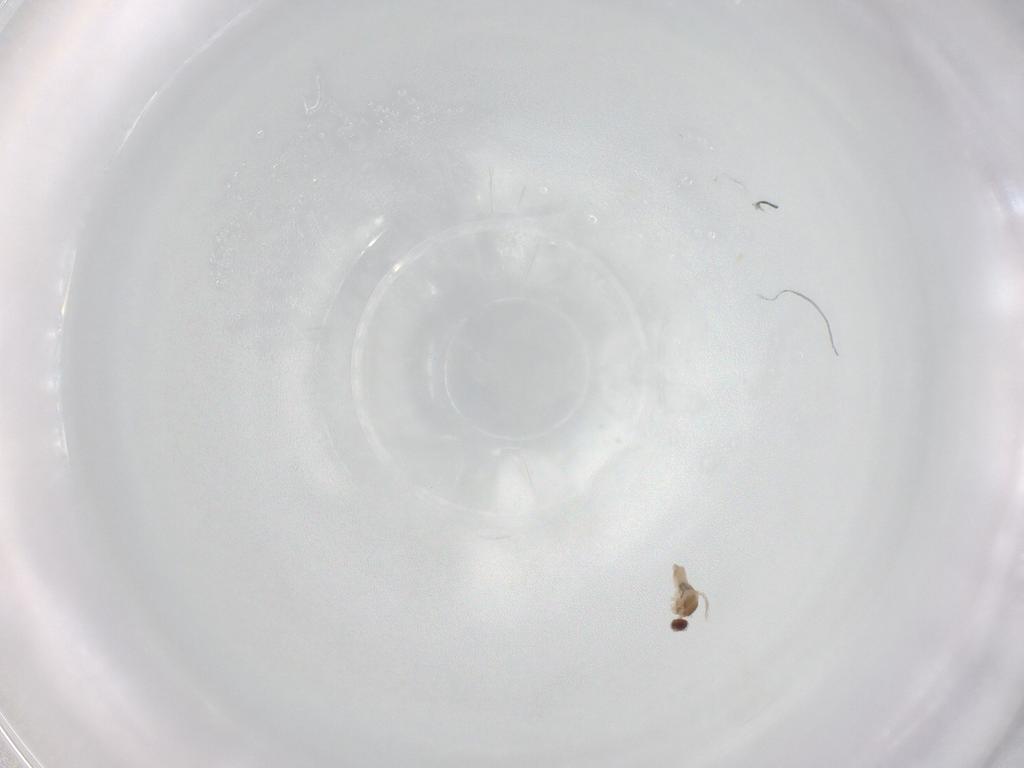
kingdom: Animalia
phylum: Arthropoda
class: Insecta
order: Diptera
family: Cecidomyiidae
